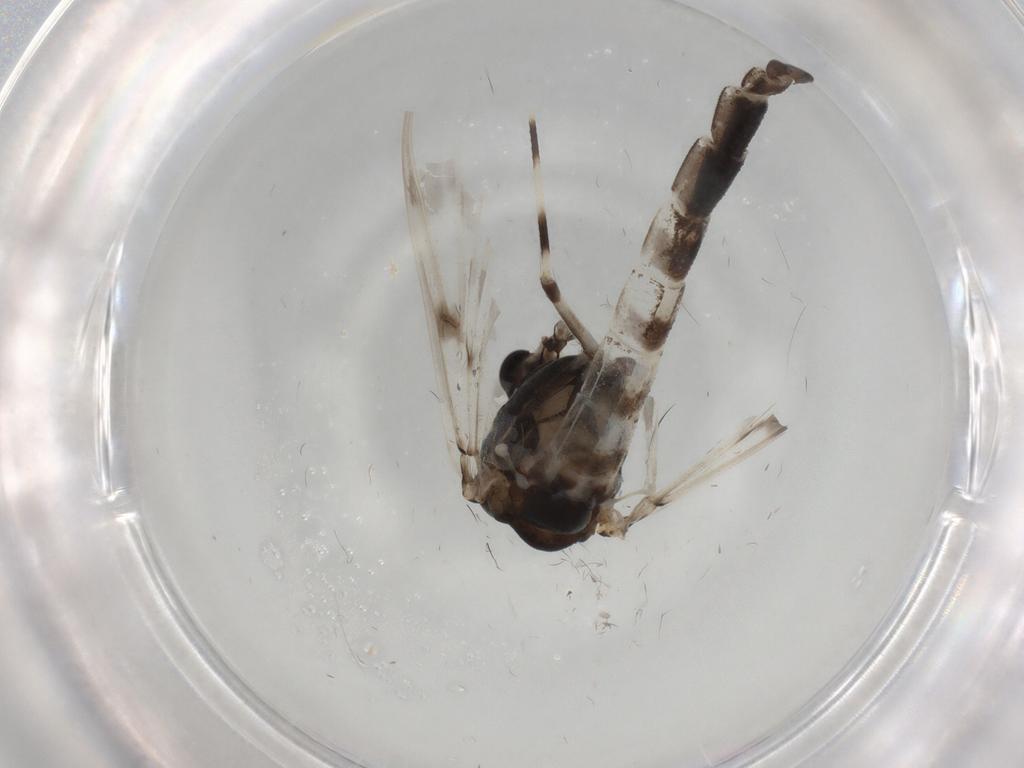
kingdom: Animalia
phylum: Arthropoda
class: Insecta
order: Diptera
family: Chironomidae
